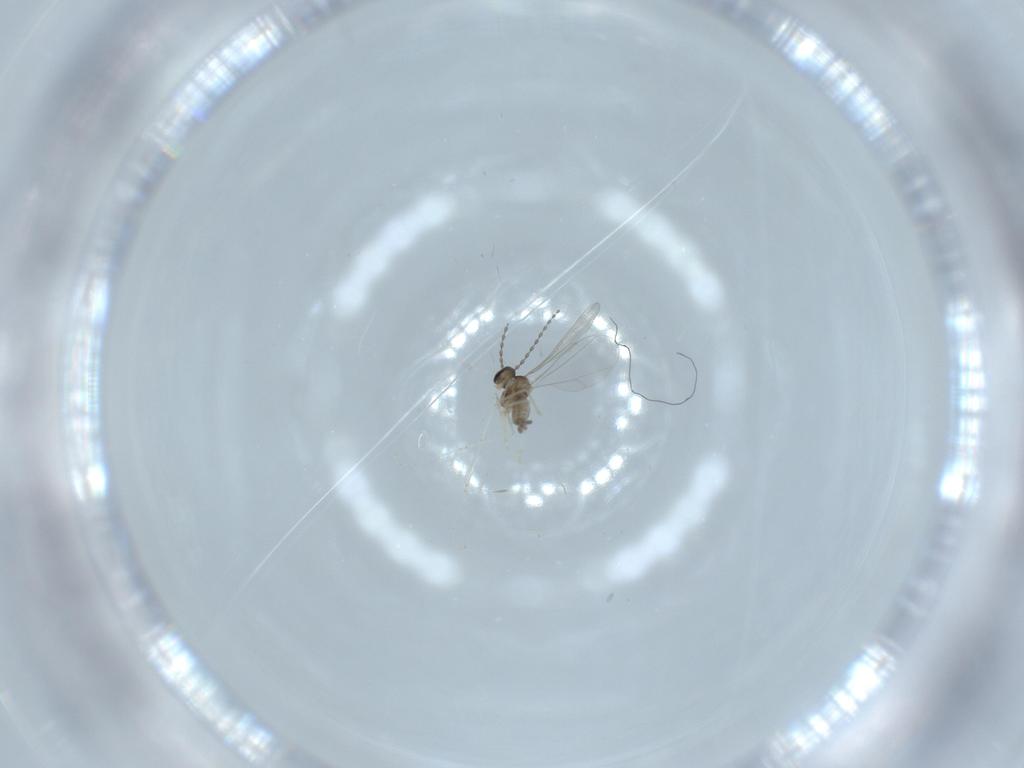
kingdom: Animalia
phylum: Arthropoda
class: Insecta
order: Diptera
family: Cecidomyiidae
